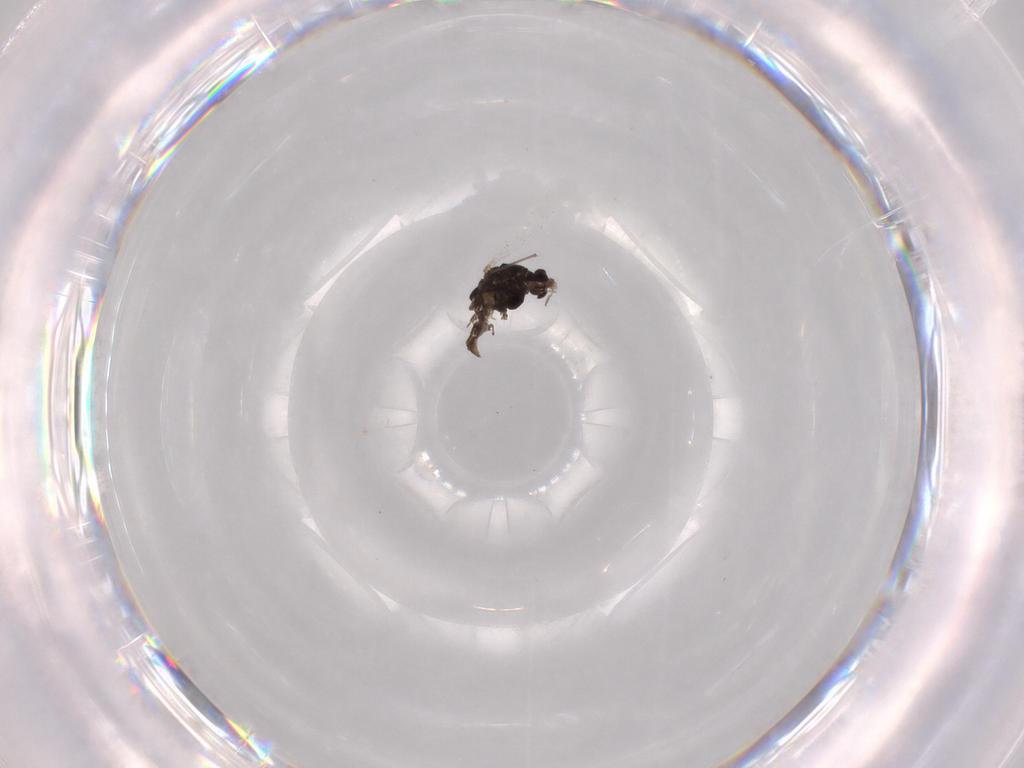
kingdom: Animalia
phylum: Arthropoda
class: Insecta
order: Diptera
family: Chironomidae
